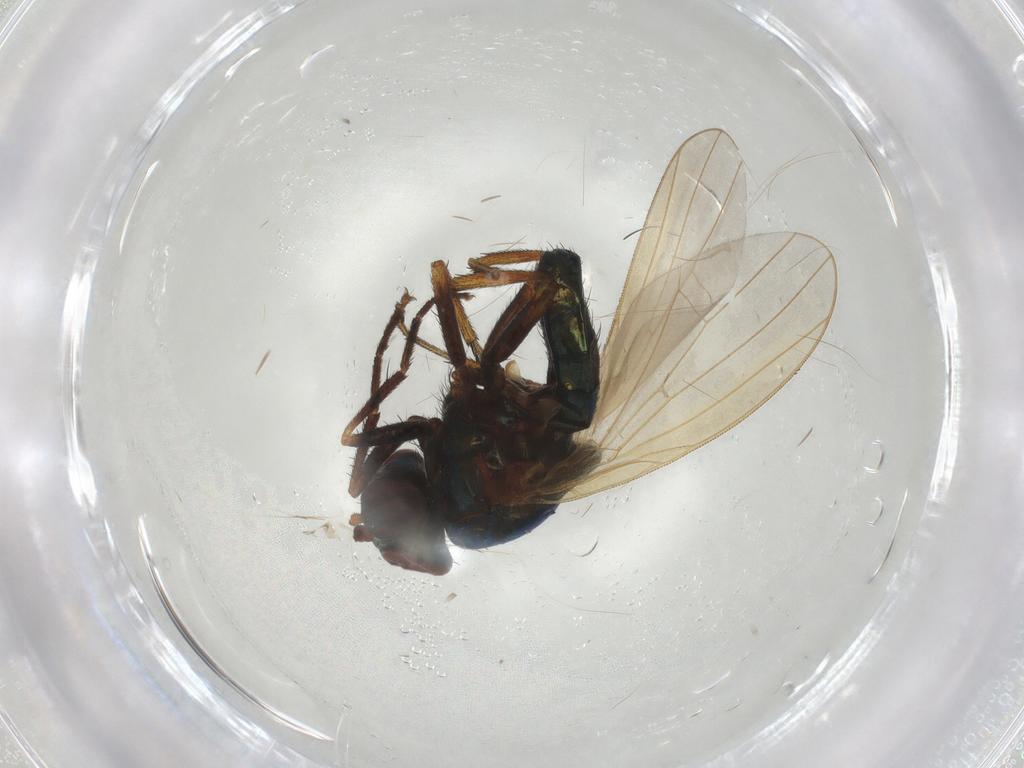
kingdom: Animalia
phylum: Arthropoda
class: Insecta
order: Diptera
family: Lauxaniidae
